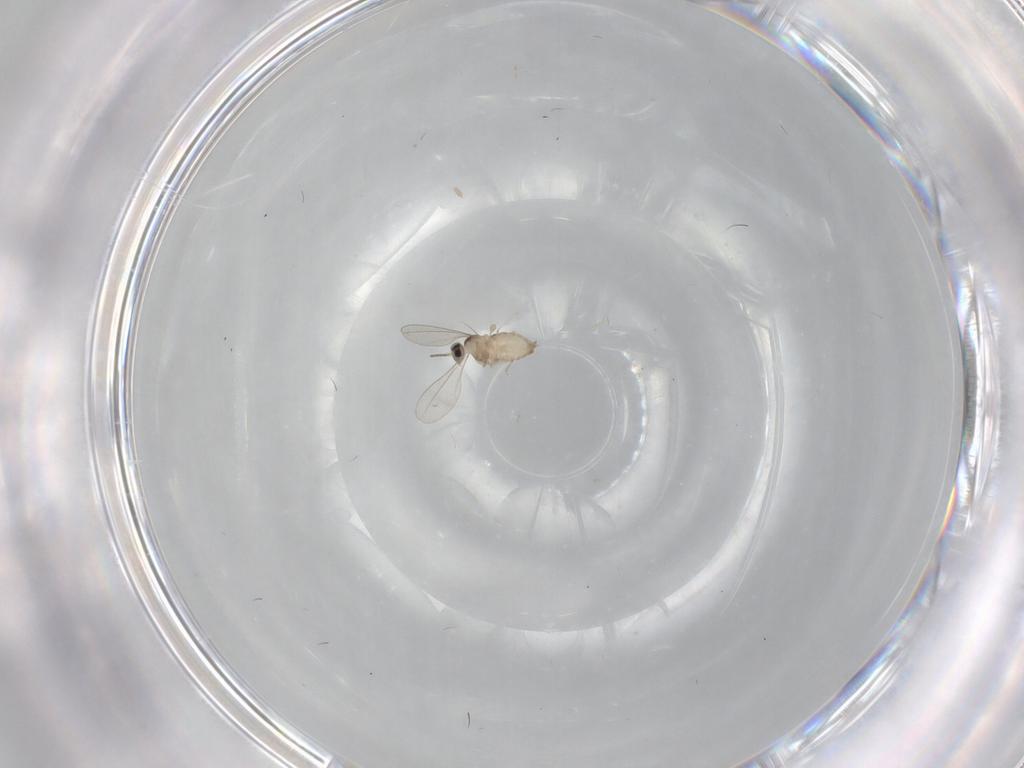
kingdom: Animalia
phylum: Arthropoda
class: Insecta
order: Diptera
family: Cecidomyiidae
